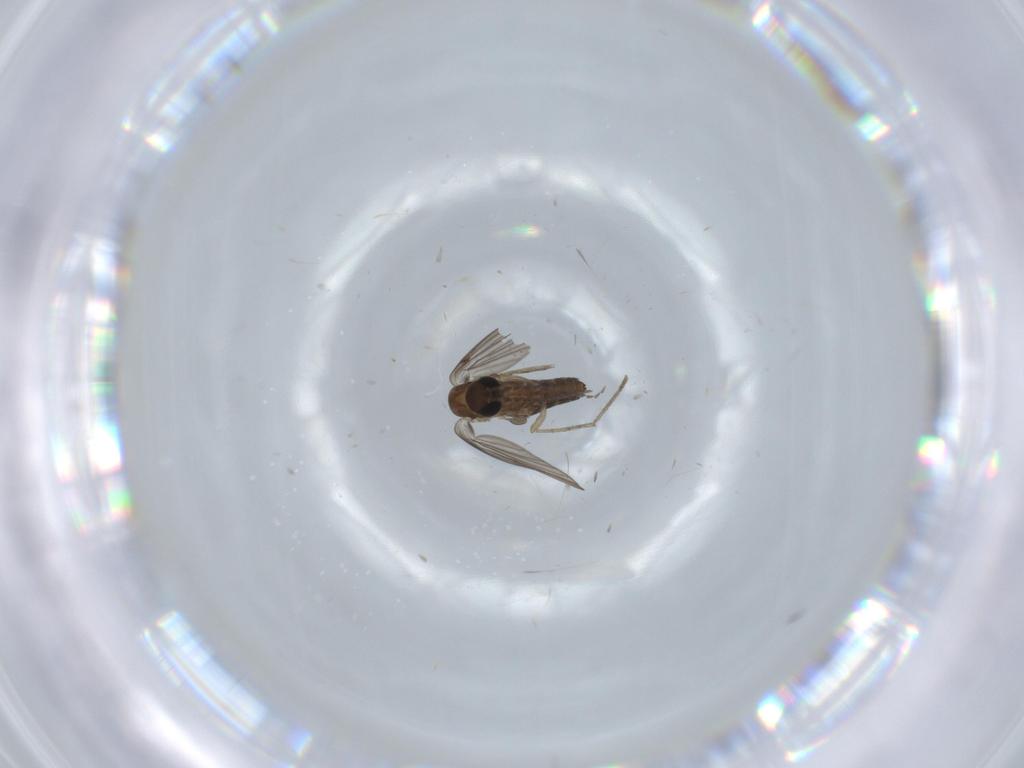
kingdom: Animalia
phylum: Arthropoda
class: Insecta
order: Diptera
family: Psychodidae
